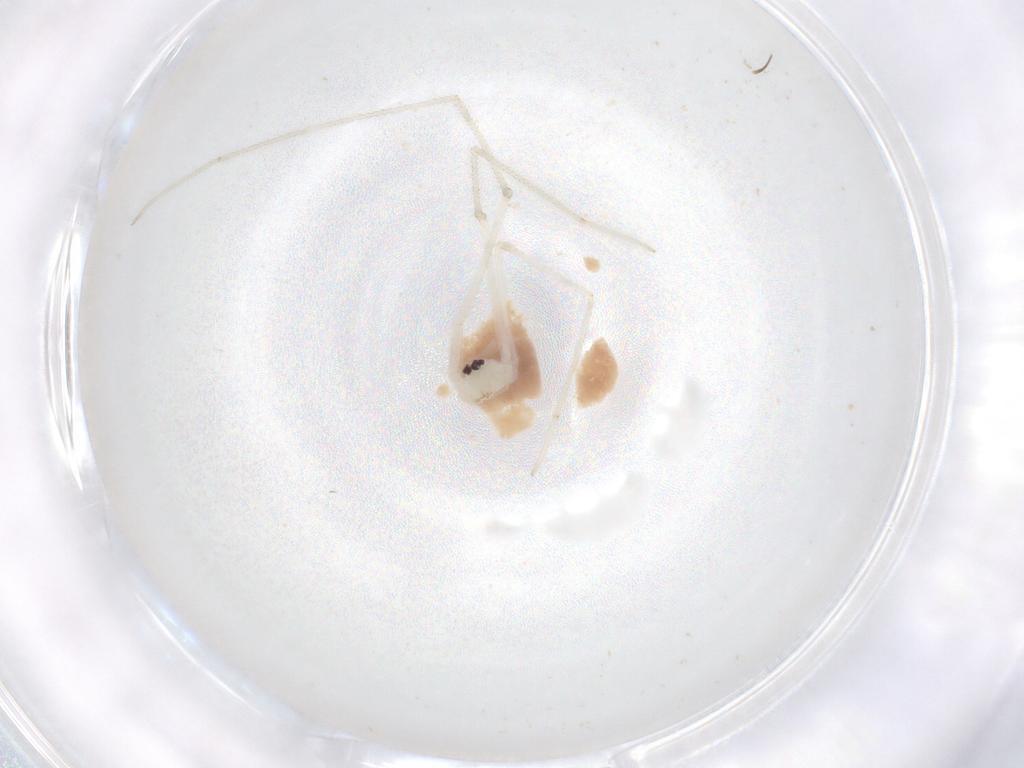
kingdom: Animalia
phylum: Arthropoda
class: Arachnida
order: Araneae
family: Pholcidae
